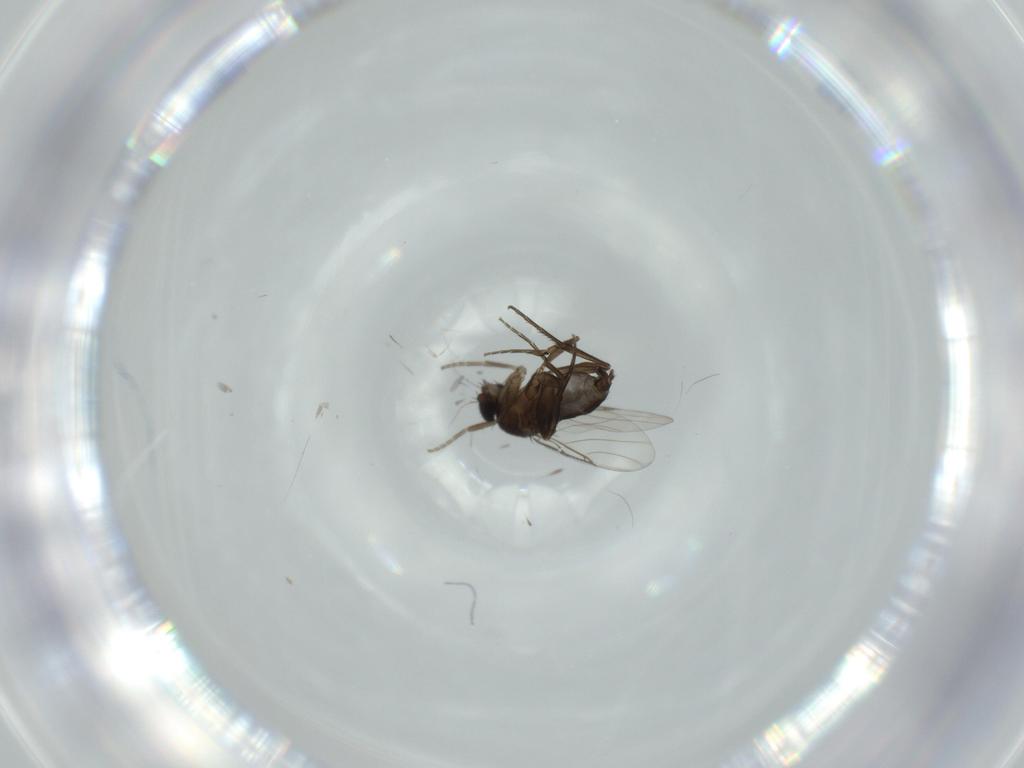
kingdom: Animalia
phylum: Arthropoda
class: Insecta
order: Diptera
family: Phoridae
